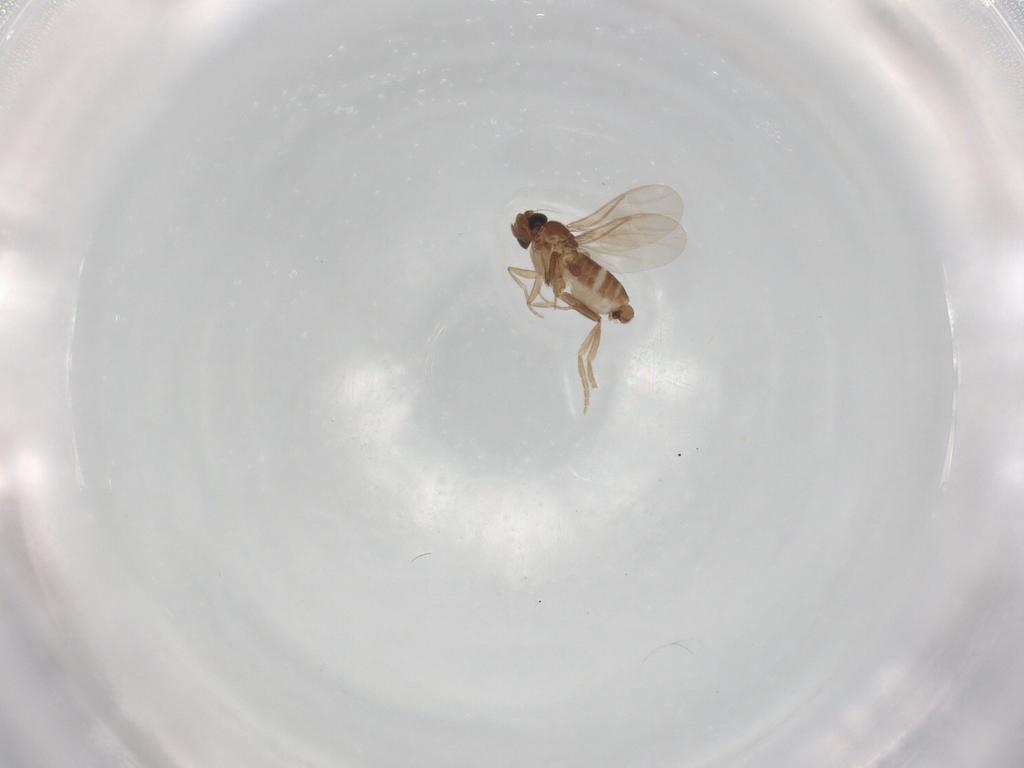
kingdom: Animalia
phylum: Arthropoda
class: Insecta
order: Diptera
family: Phoridae
